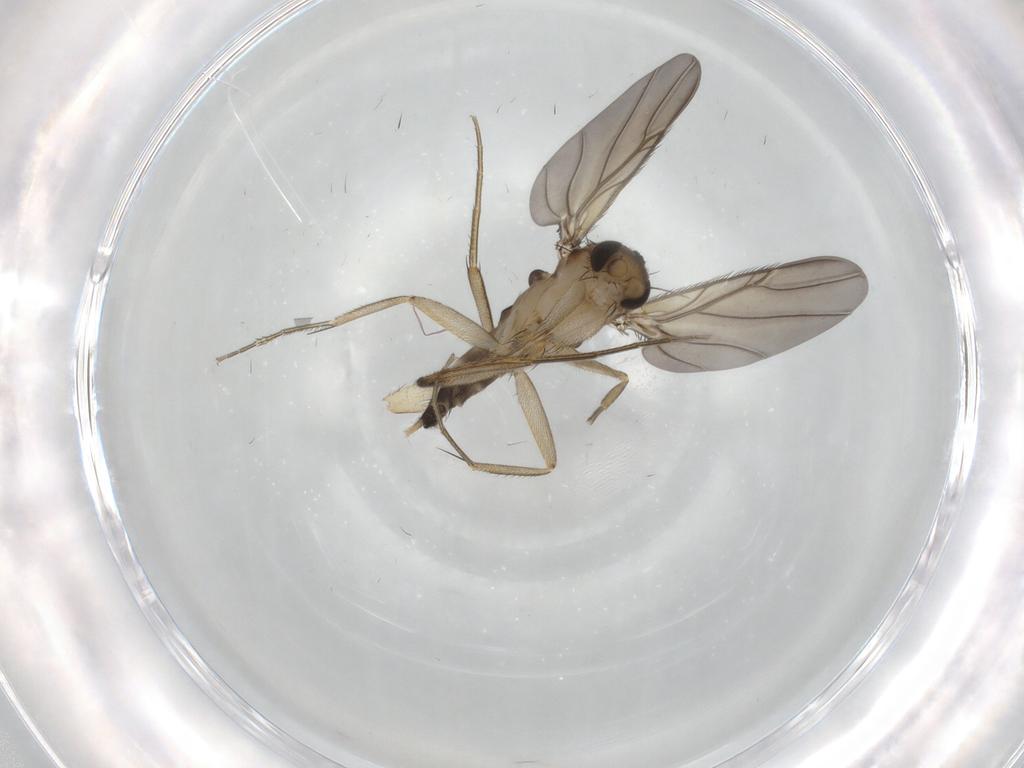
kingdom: Animalia
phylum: Arthropoda
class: Insecta
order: Diptera
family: Phoridae
